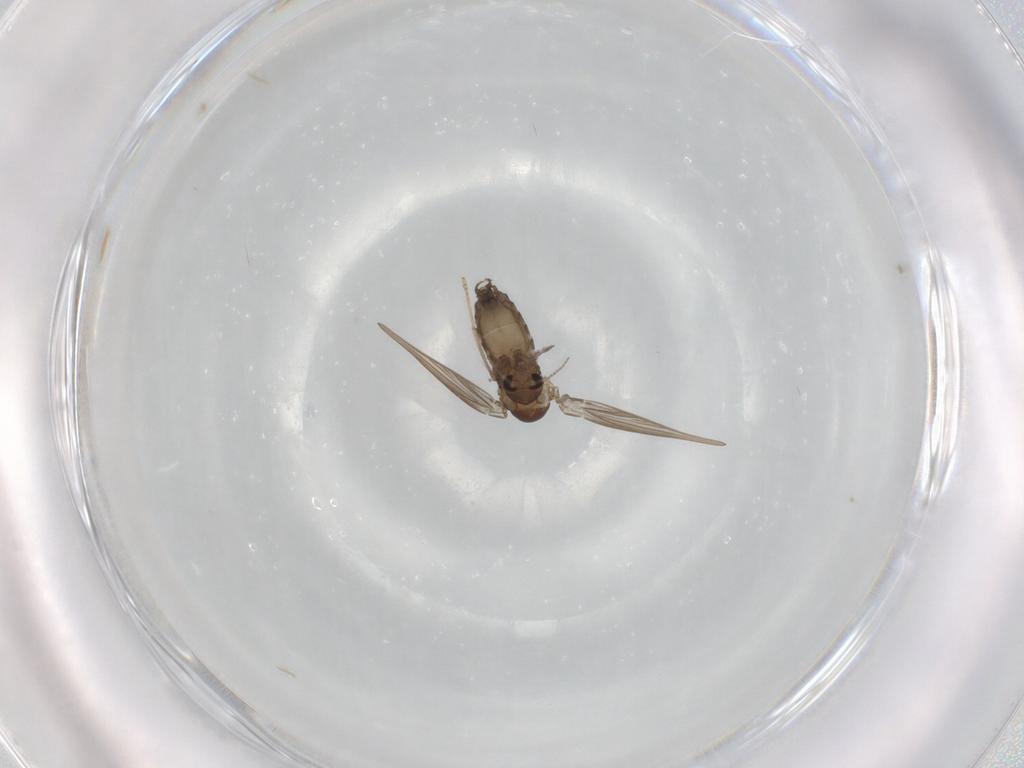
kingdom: Animalia
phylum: Arthropoda
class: Insecta
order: Diptera
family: Psychodidae
